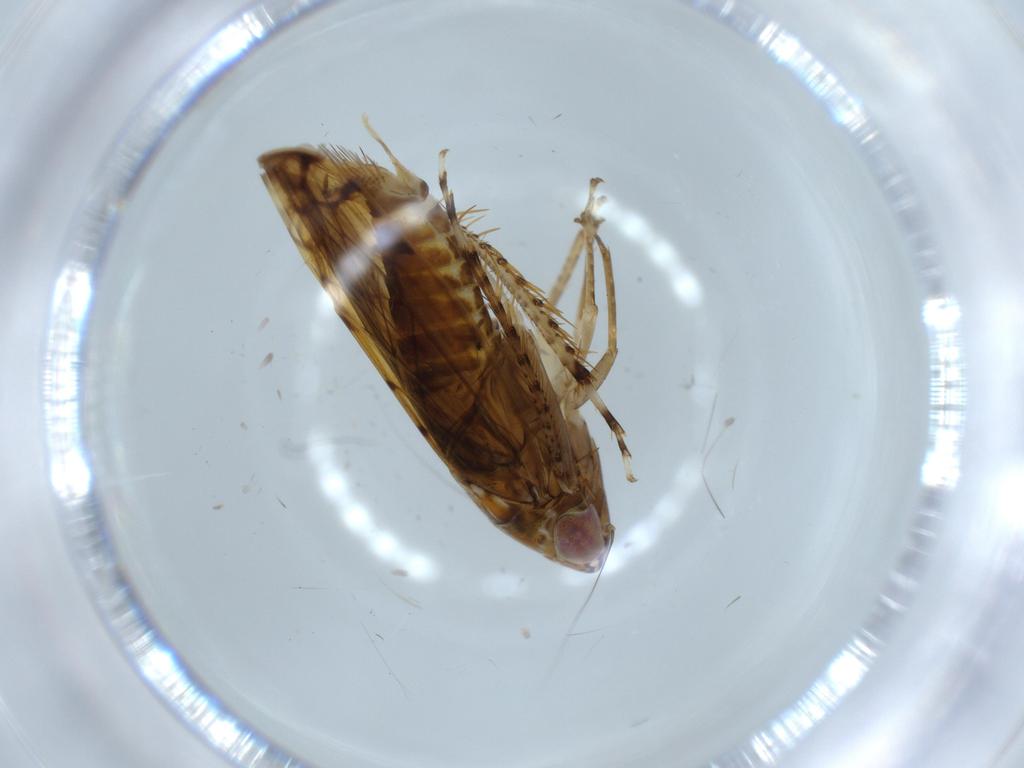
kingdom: Animalia
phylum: Arthropoda
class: Insecta
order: Hemiptera
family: Cicadellidae
